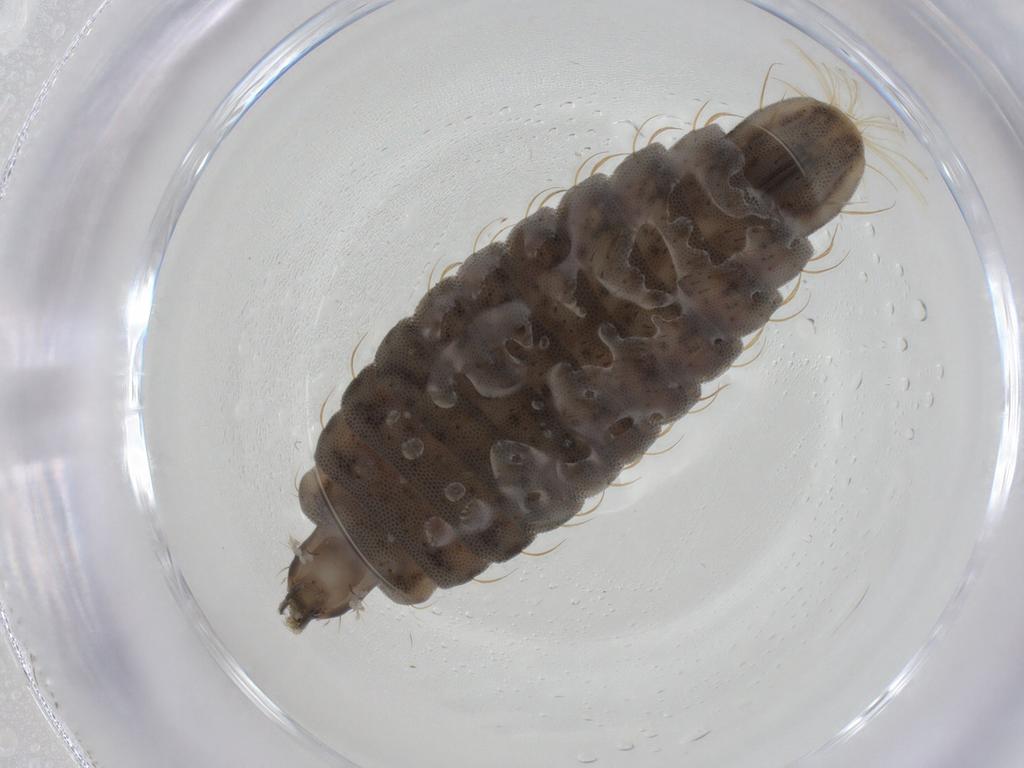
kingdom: Animalia
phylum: Arthropoda
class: Insecta
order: Diptera
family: Stratiomyidae
